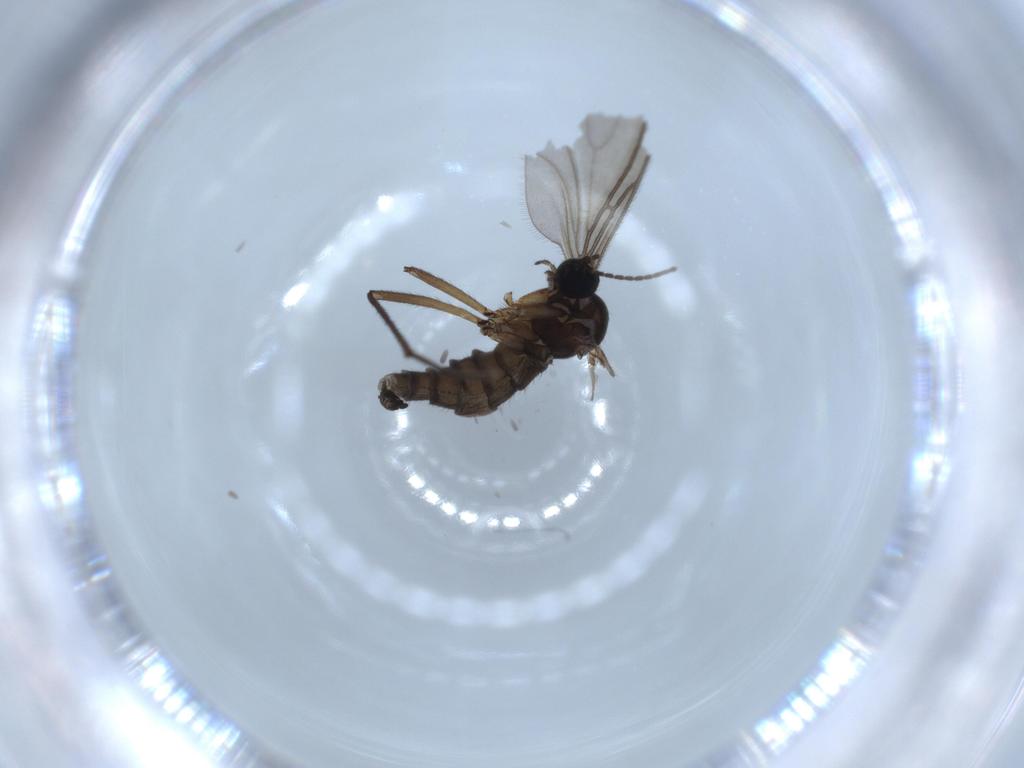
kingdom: Animalia
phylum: Arthropoda
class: Insecta
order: Diptera
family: Sciaridae
